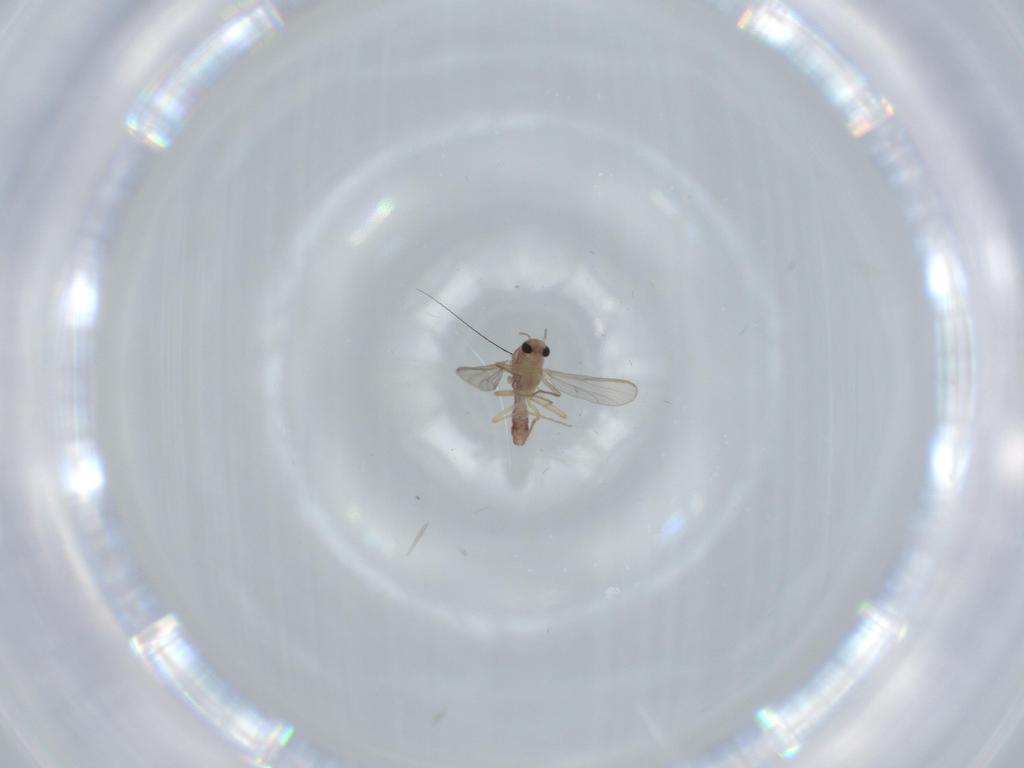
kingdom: Animalia
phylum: Arthropoda
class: Insecta
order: Diptera
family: Chironomidae
